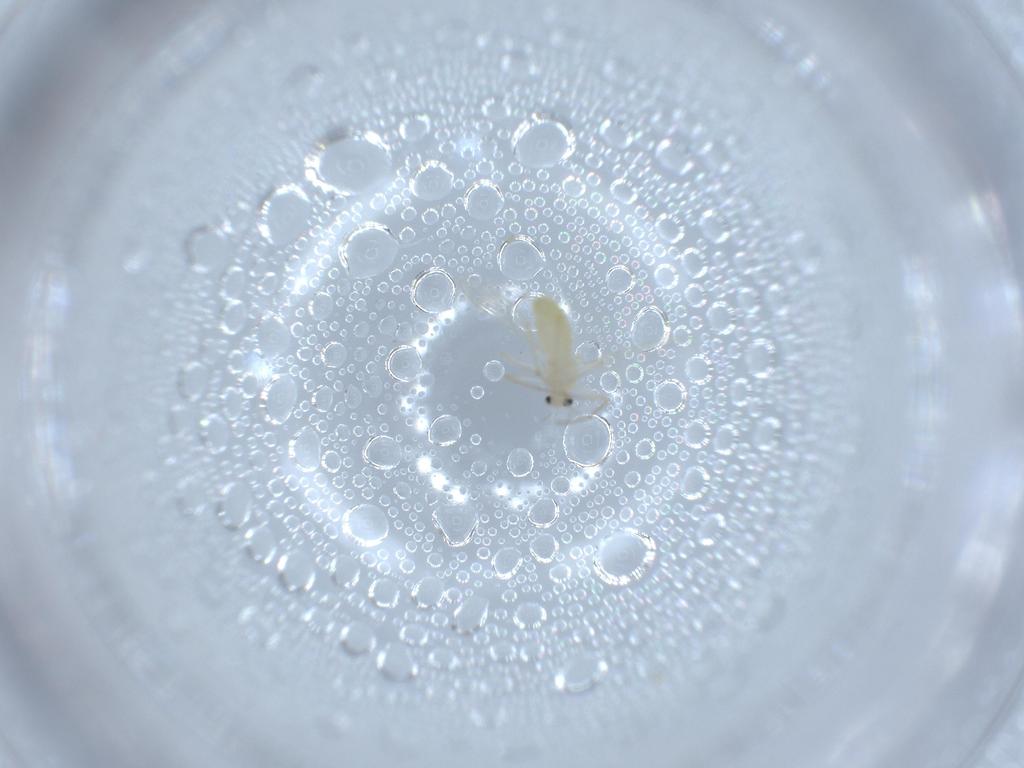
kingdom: Animalia
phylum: Arthropoda
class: Insecta
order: Diptera
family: Chironomidae
